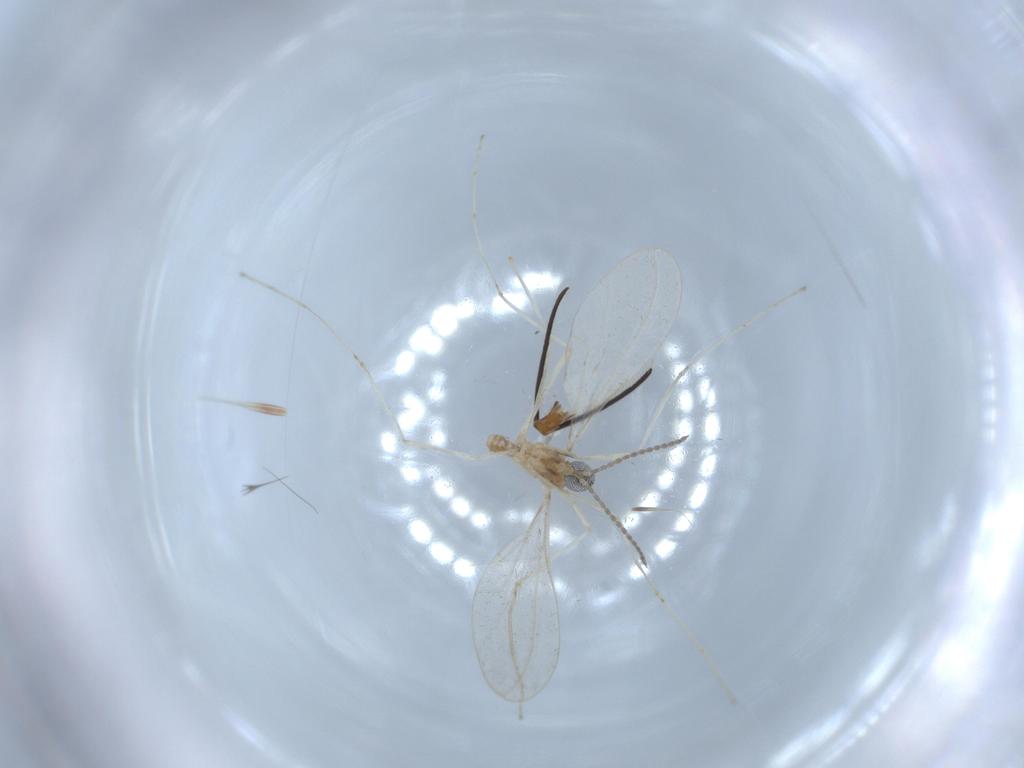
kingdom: Animalia
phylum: Arthropoda
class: Insecta
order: Diptera
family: Cecidomyiidae
